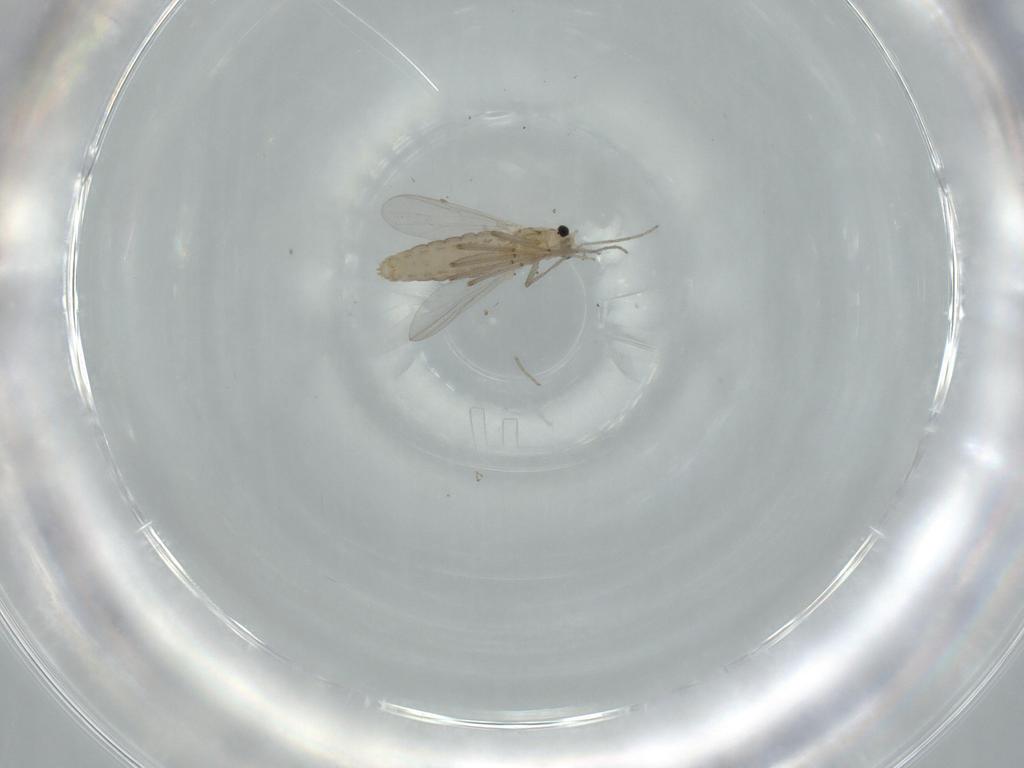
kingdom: Animalia
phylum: Arthropoda
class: Insecta
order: Diptera
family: Chironomidae
